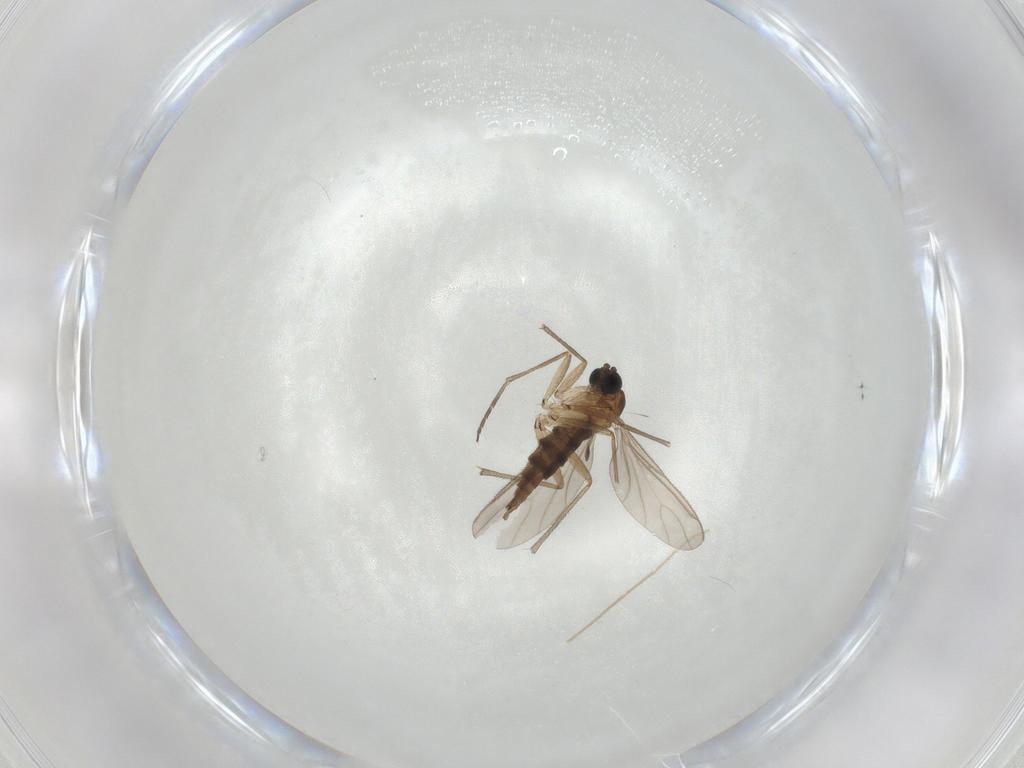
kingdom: Animalia
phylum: Arthropoda
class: Insecta
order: Diptera
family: Sciaridae
